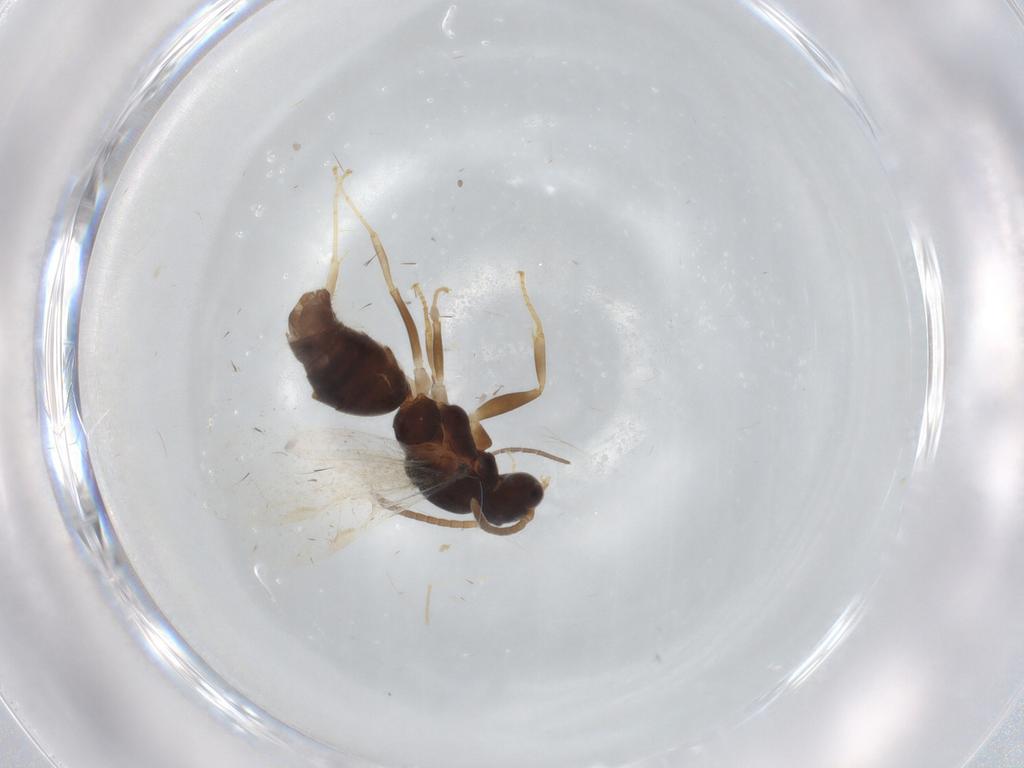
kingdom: Animalia
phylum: Arthropoda
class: Insecta
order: Hymenoptera
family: Formicidae
